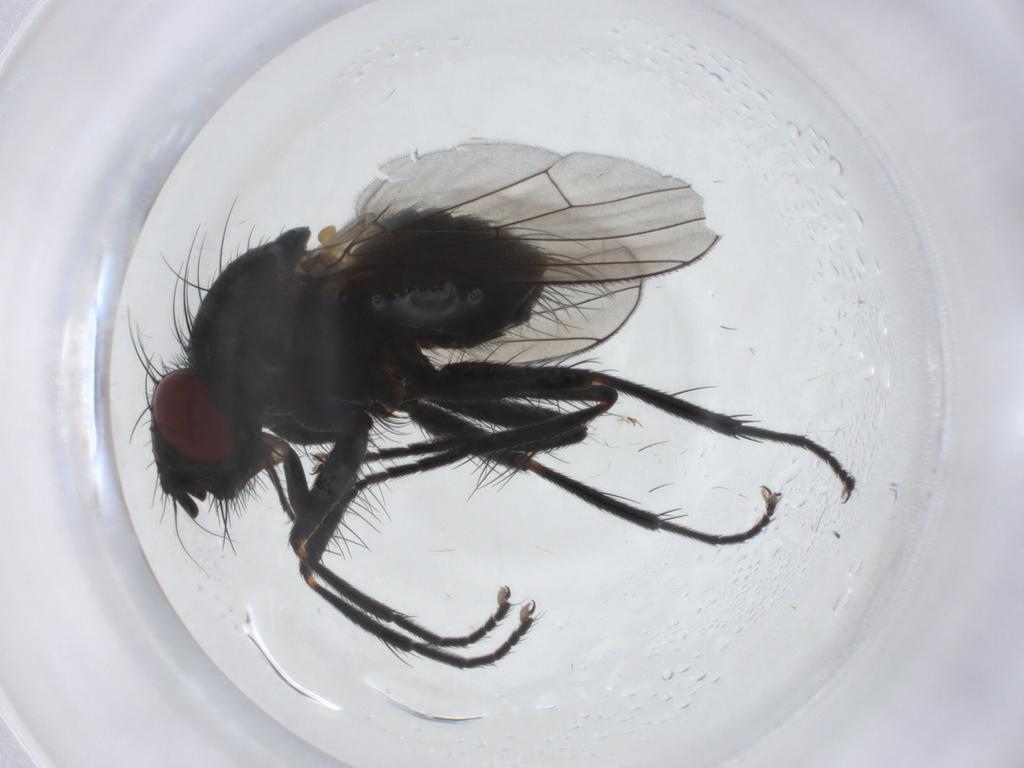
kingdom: Animalia
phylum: Arthropoda
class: Insecta
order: Diptera
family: Muscidae
